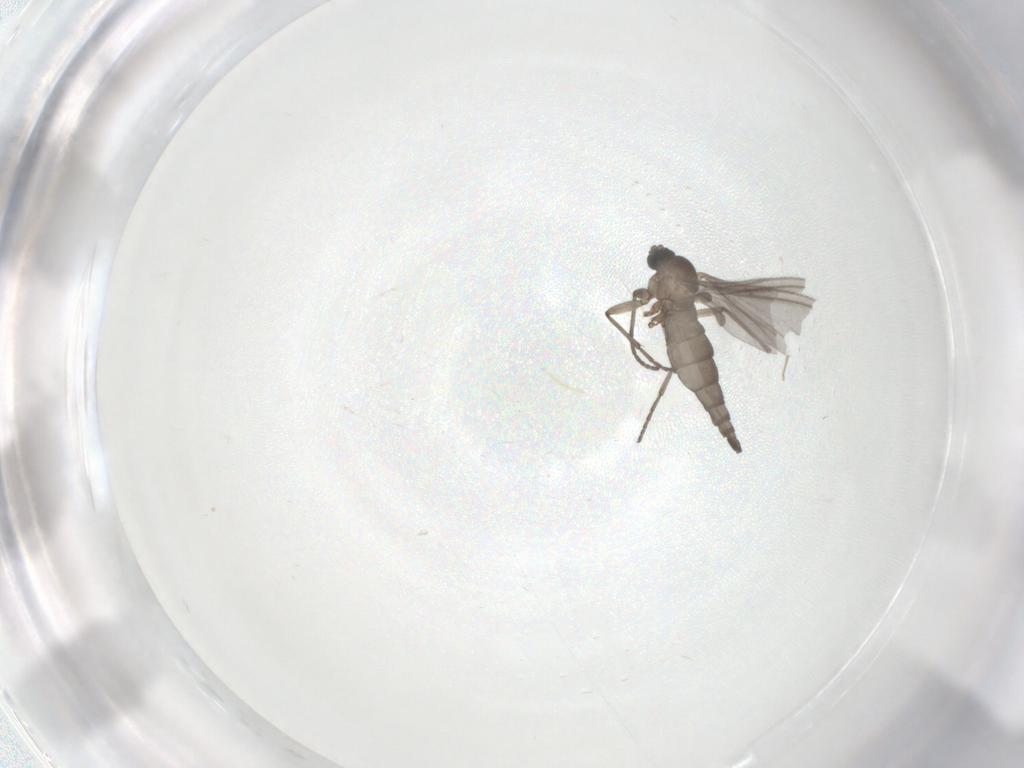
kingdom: Animalia
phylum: Arthropoda
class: Insecta
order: Diptera
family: Sciaridae
